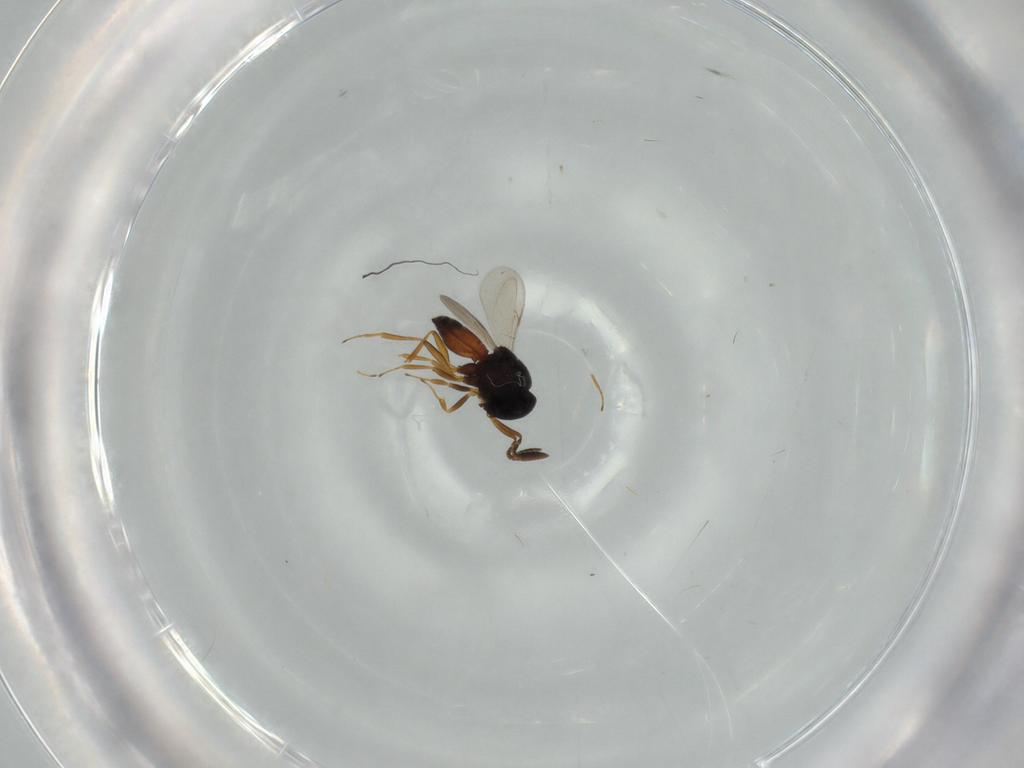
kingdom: Animalia
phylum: Arthropoda
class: Insecta
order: Hymenoptera
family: Scelionidae
